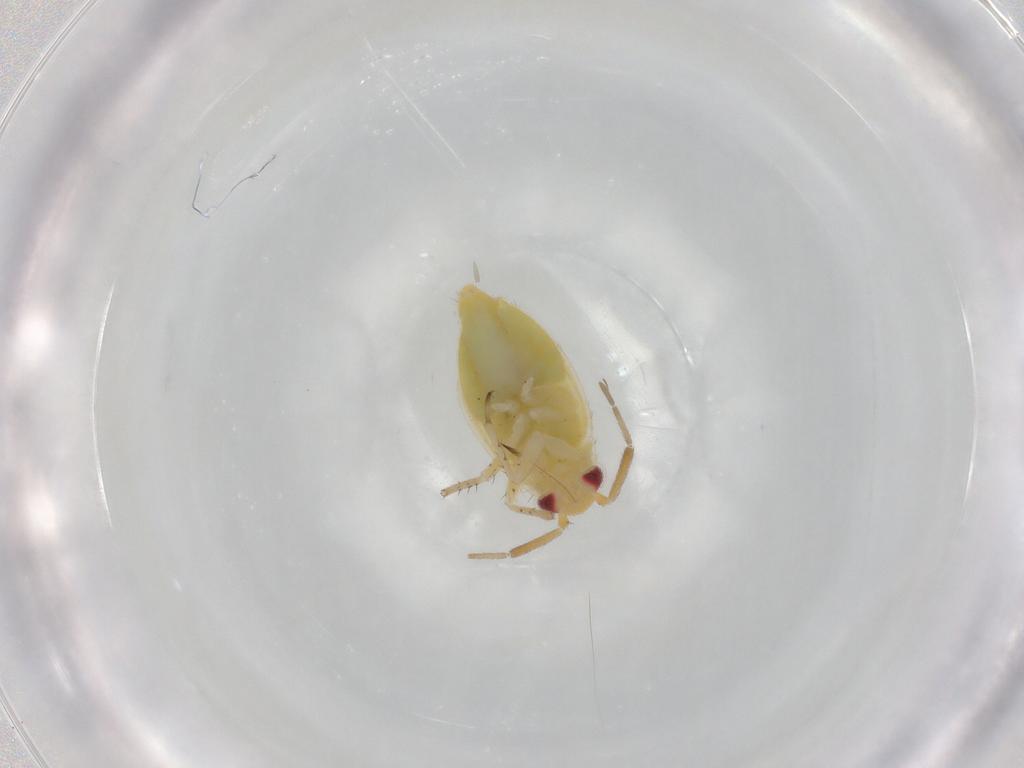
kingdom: Animalia
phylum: Arthropoda
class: Insecta
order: Hemiptera
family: Miridae
